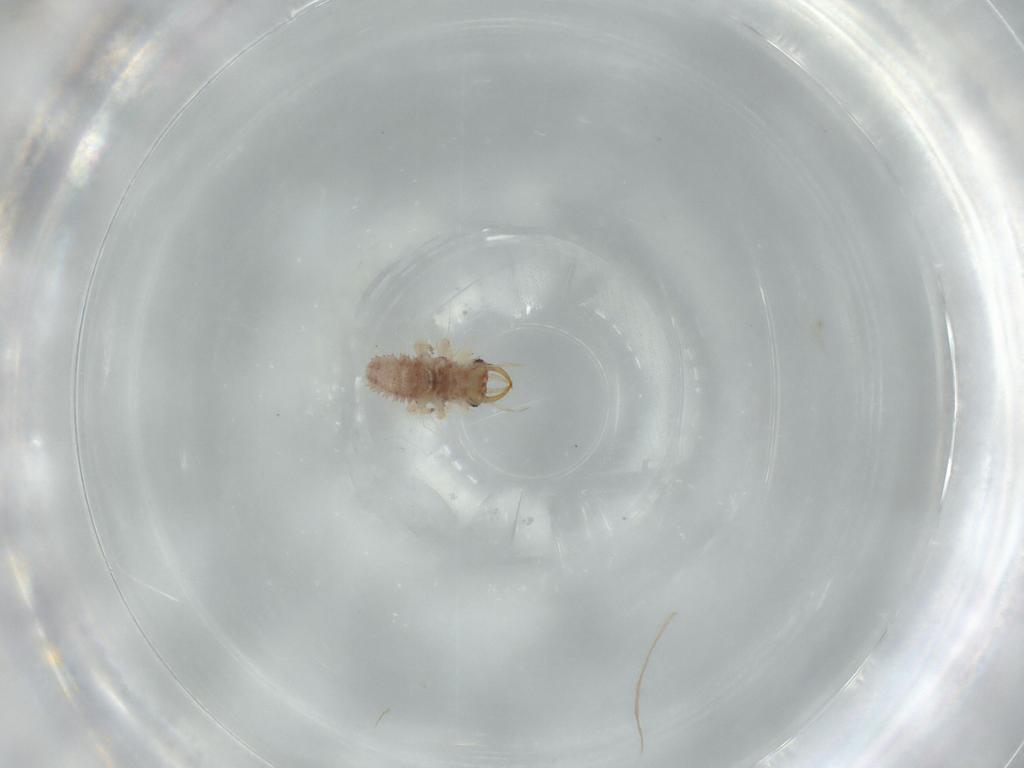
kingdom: Animalia
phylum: Arthropoda
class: Insecta
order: Neuroptera
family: Chrysopidae
